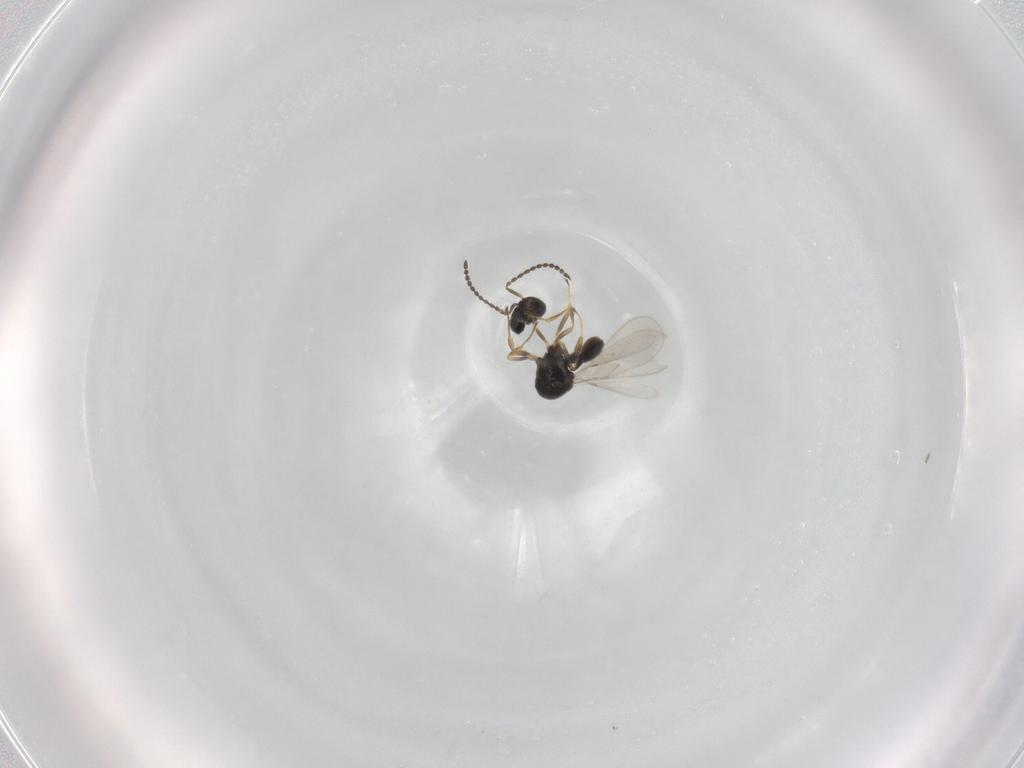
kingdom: Animalia
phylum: Arthropoda
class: Insecta
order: Hymenoptera
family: Scelionidae
